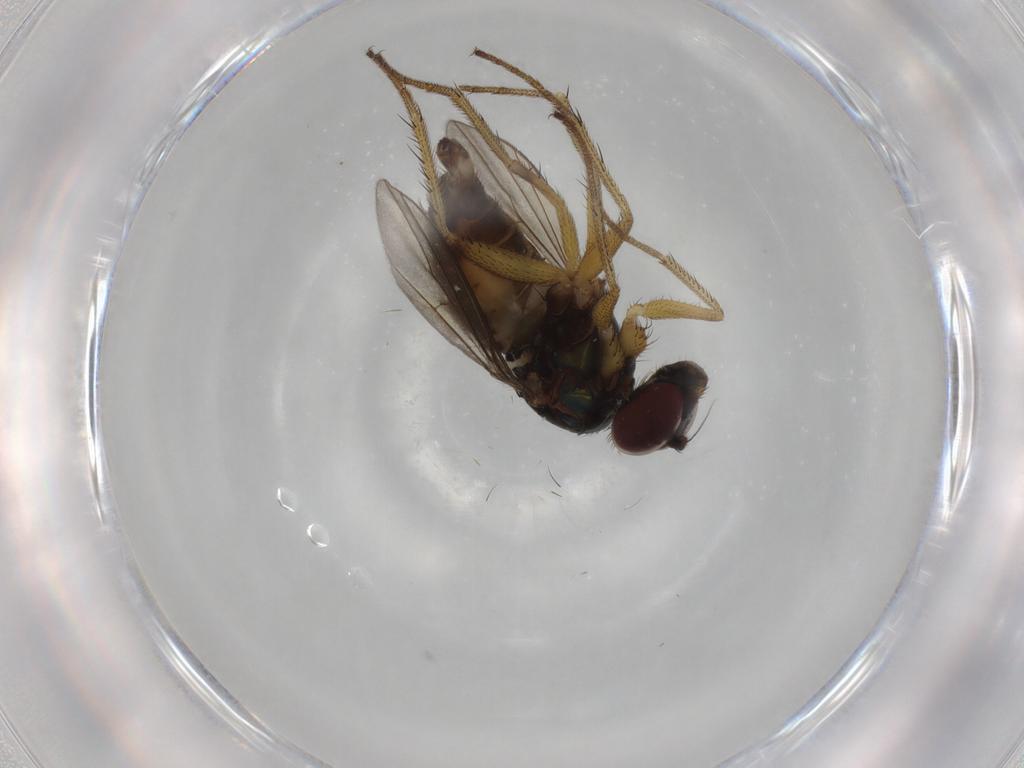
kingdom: Animalia
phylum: Arthropoda
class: Insecta
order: Diptera
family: Dolichopodidae
